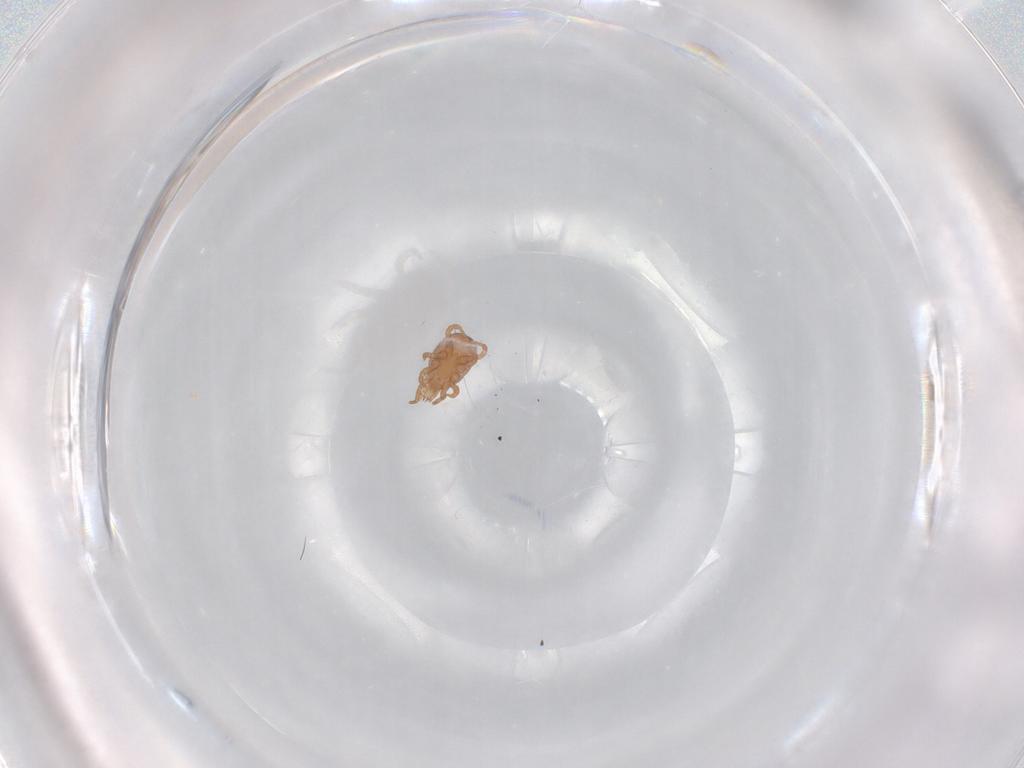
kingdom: Animalia
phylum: Arthropoda
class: Arachnida
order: Mesostigmata
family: Eviphididae
